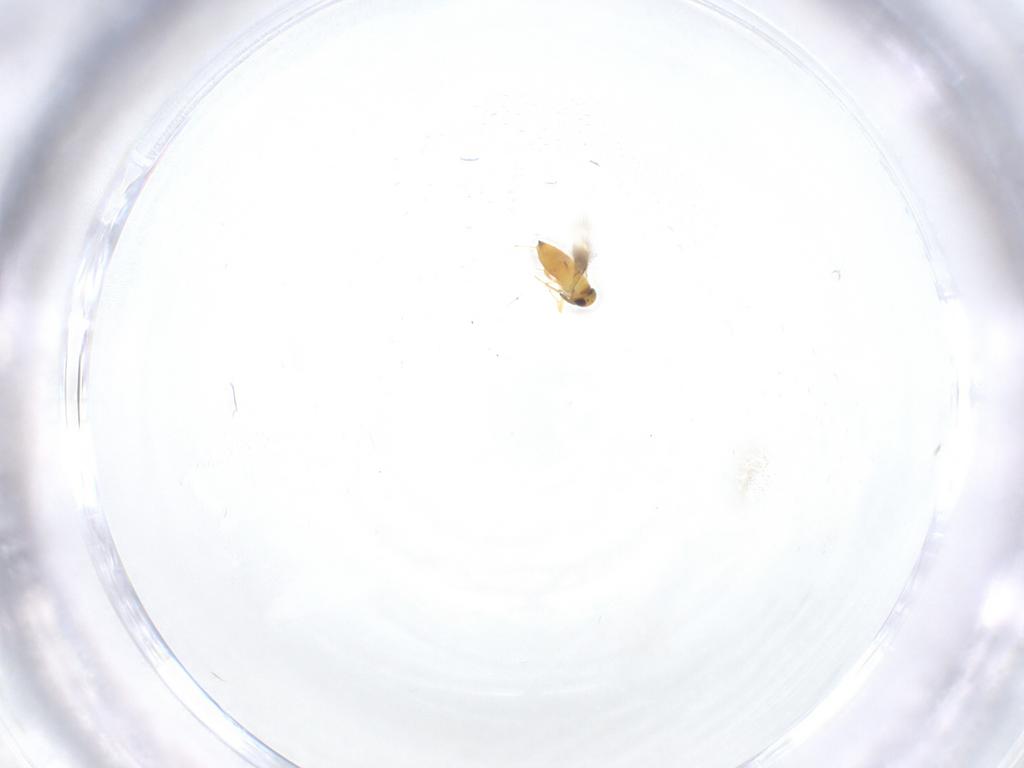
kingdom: Animalia
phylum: Arthropoda
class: Insecta
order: Hymenoptera
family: Signiphoridae
